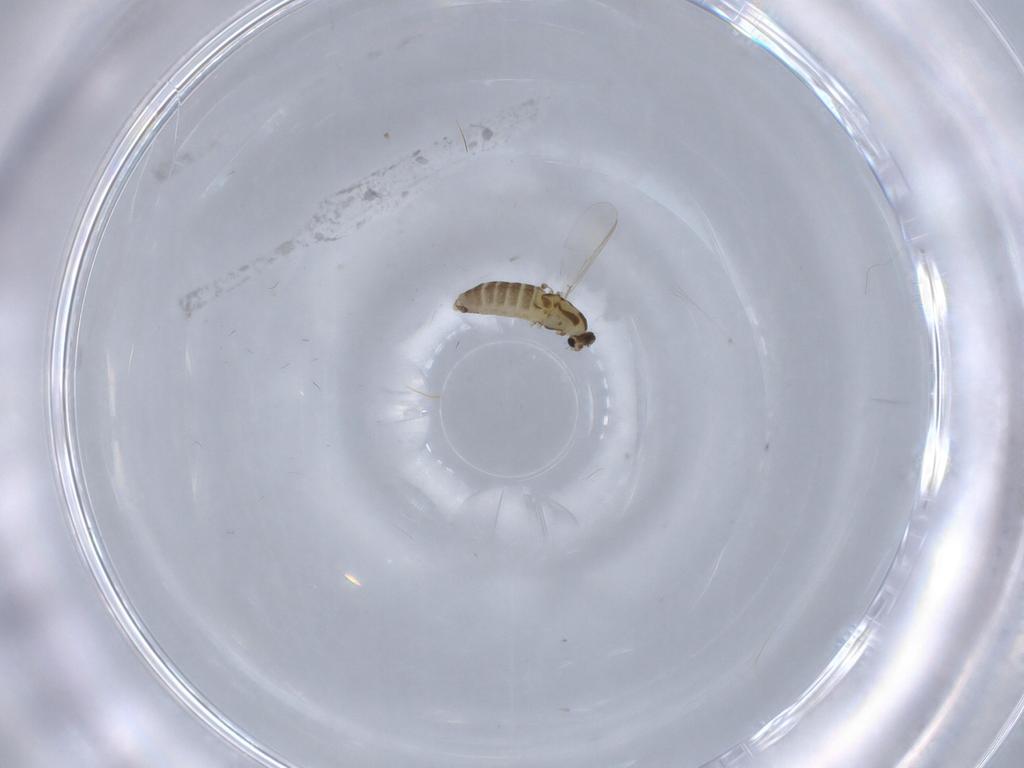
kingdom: Animalia
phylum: Arthropoda
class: Insecta
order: Diptera
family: Chironomidae
